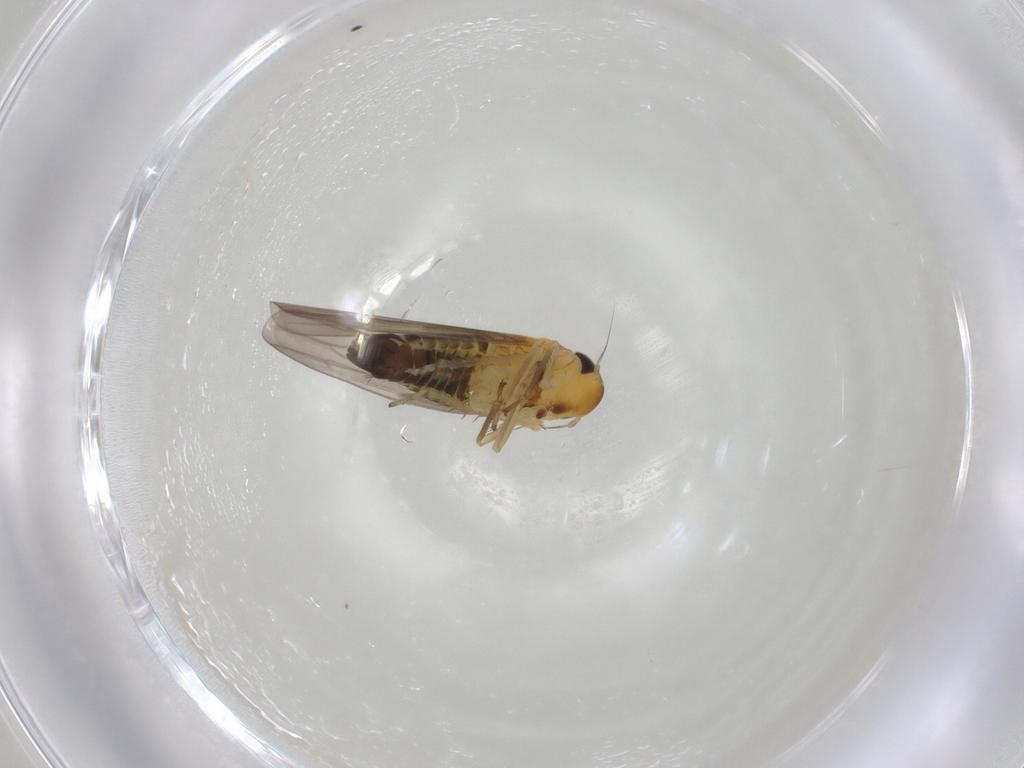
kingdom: Animalia
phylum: Arthropoda
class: Insecta
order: Hemiptera
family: Cicadellidae
